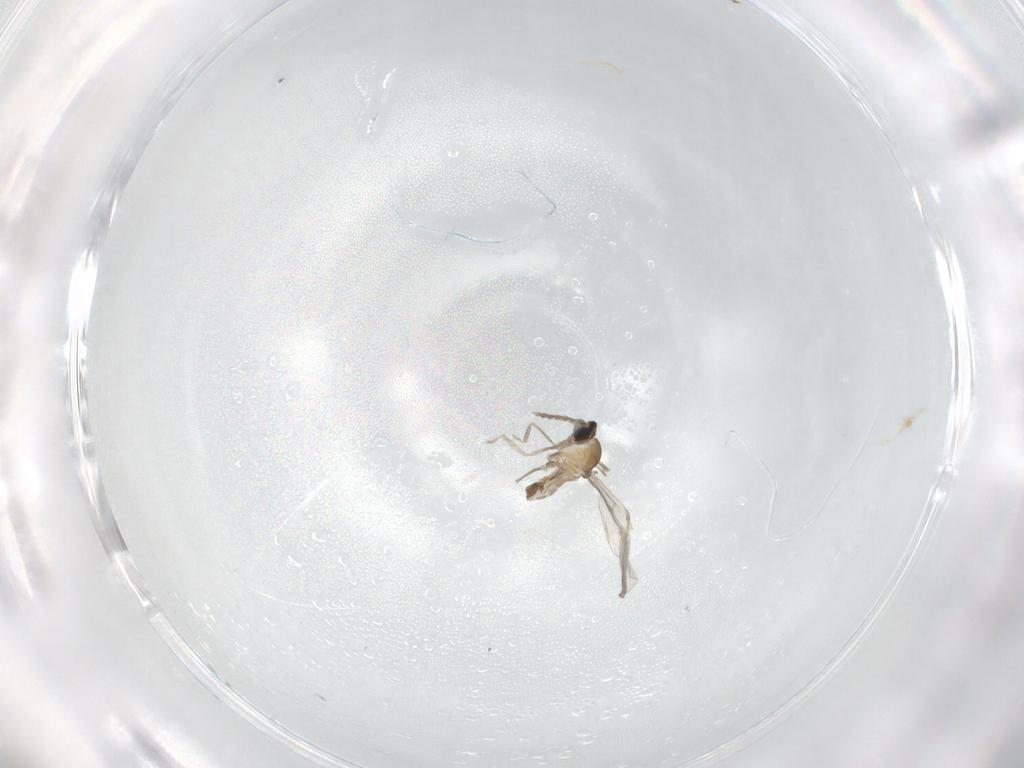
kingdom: Animalia
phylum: Arthropoda
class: Insecta
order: Diptera
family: Cecidomyiidae
